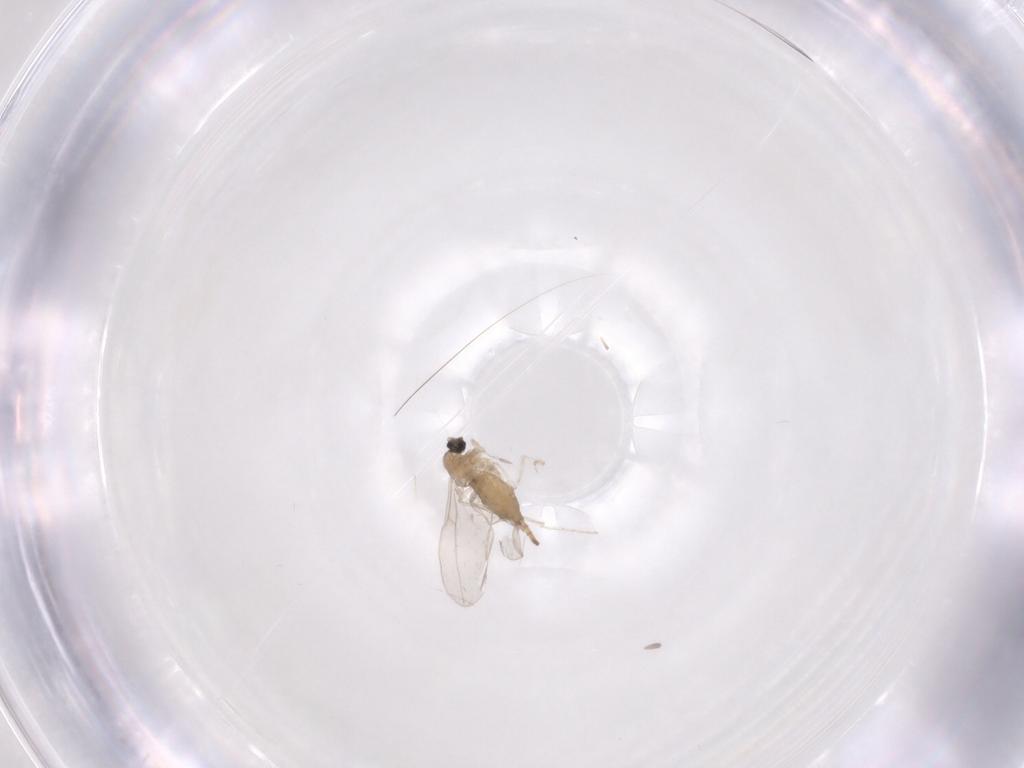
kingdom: Animalia
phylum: Arthropoda
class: Insecta
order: Diptera
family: Cecidomyiidae
